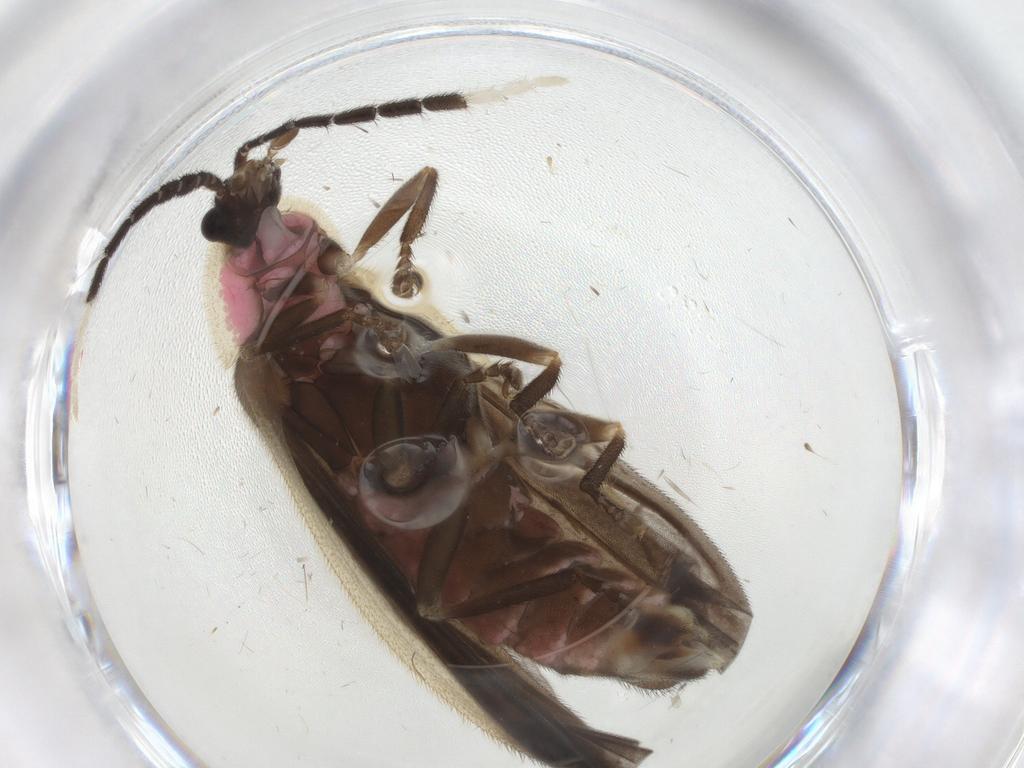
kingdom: Animalia
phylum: Arthropoda
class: Insecta
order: Coleoptera
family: Lampyridae
